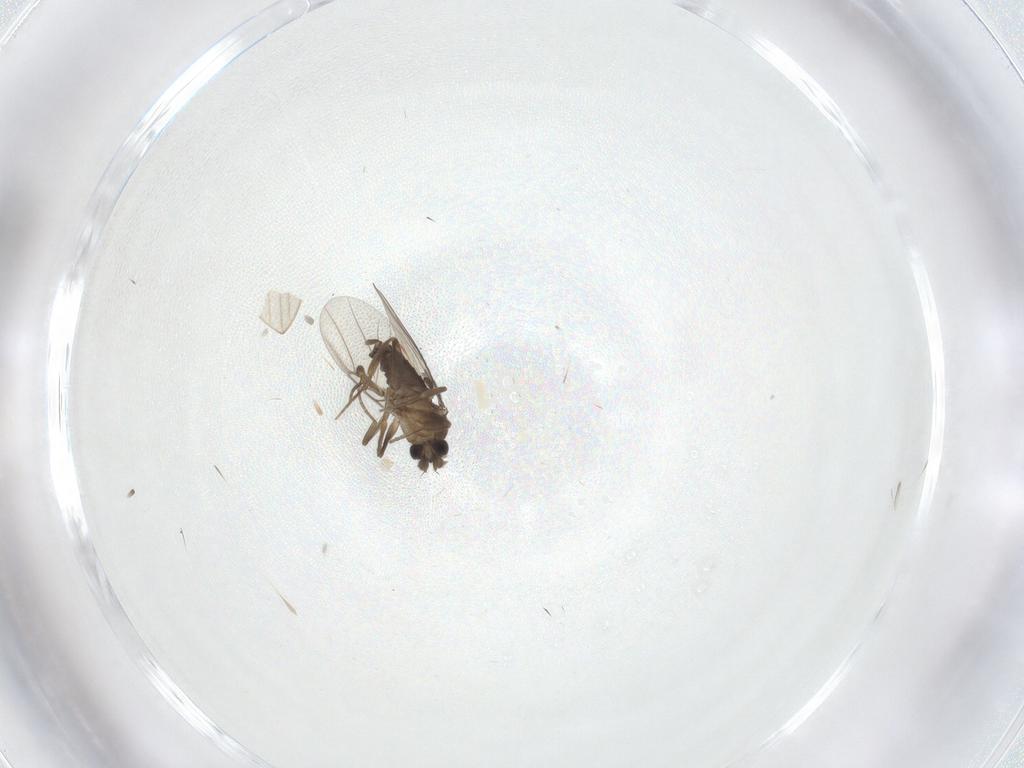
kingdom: Animalia
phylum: Arthropoda
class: Insecta
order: Diptera
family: Phoridae
